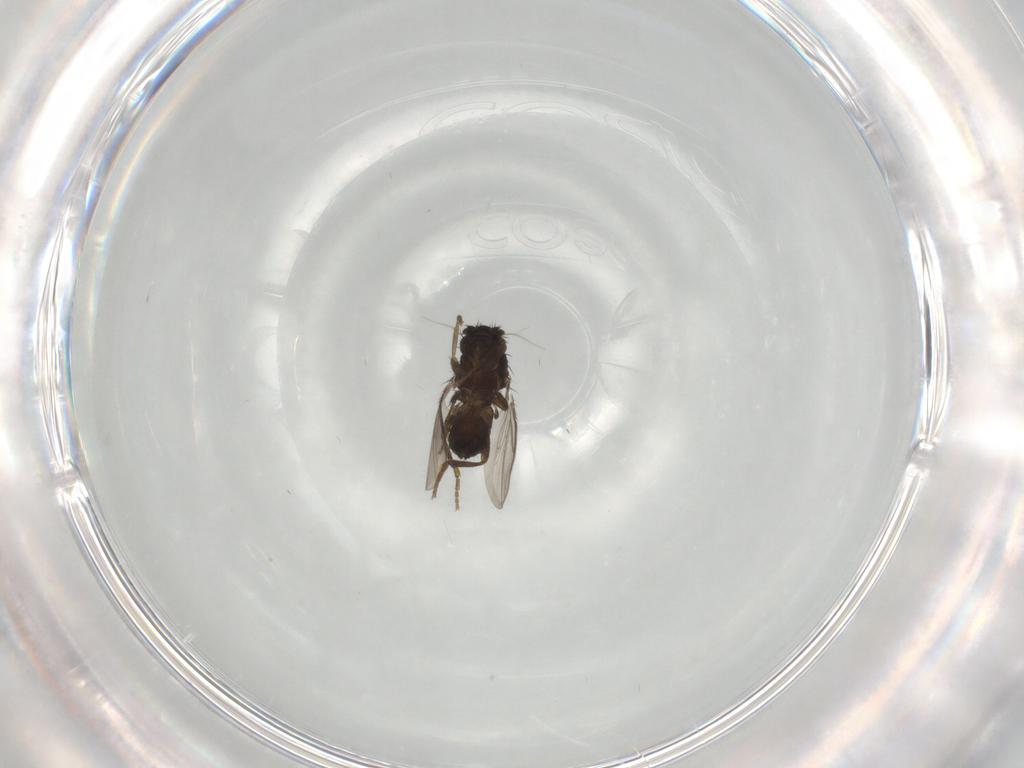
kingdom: Animalia
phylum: Arthropoda
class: Insecta
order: Diptera
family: Sphaeroceridae
